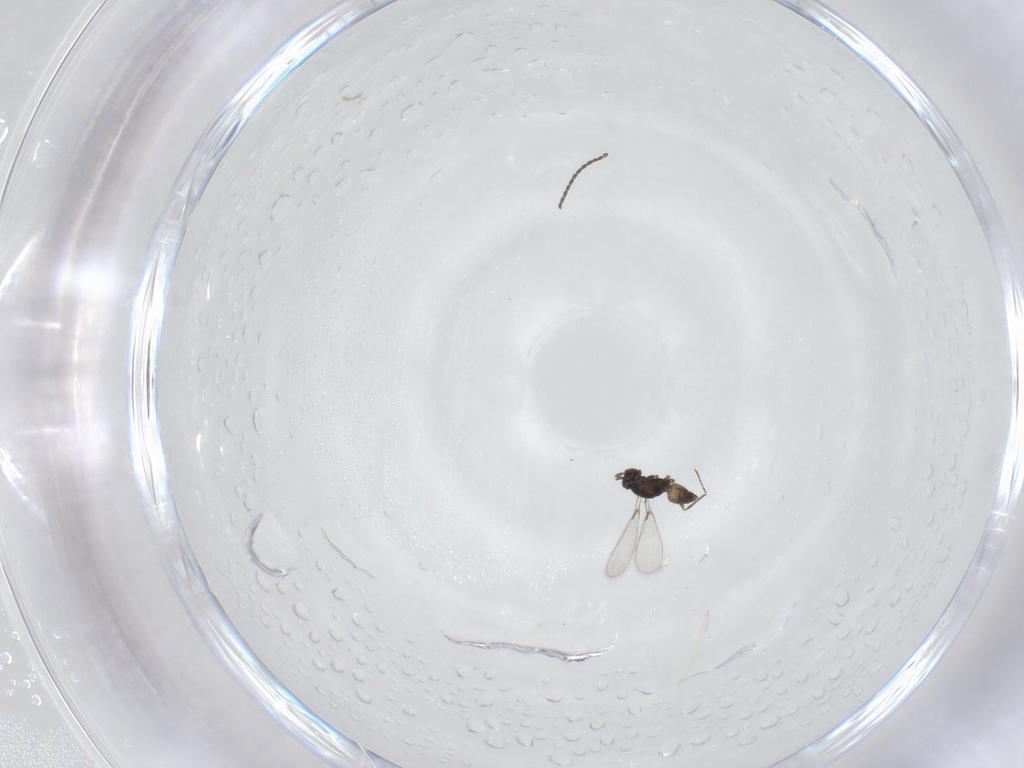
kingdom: Animalia
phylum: Arthropoda
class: Insecta
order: Hymenoptera
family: Mymaridae
